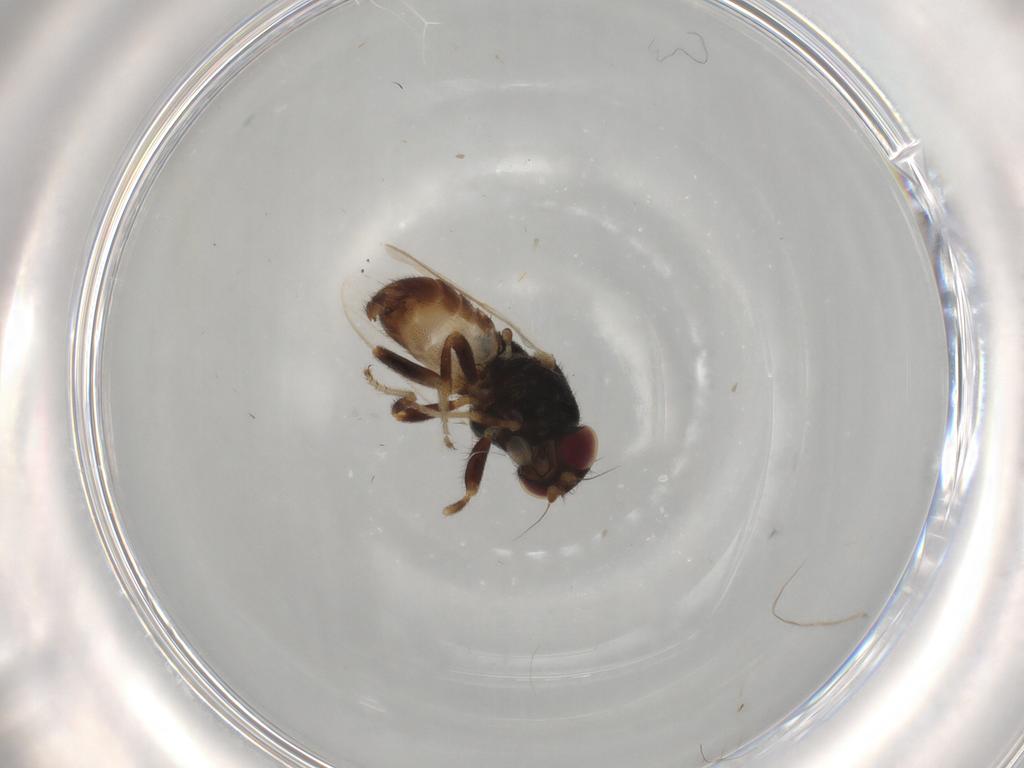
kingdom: Animalia
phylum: Arthropoda
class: Insecta
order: Diptera
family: Chloropidae
